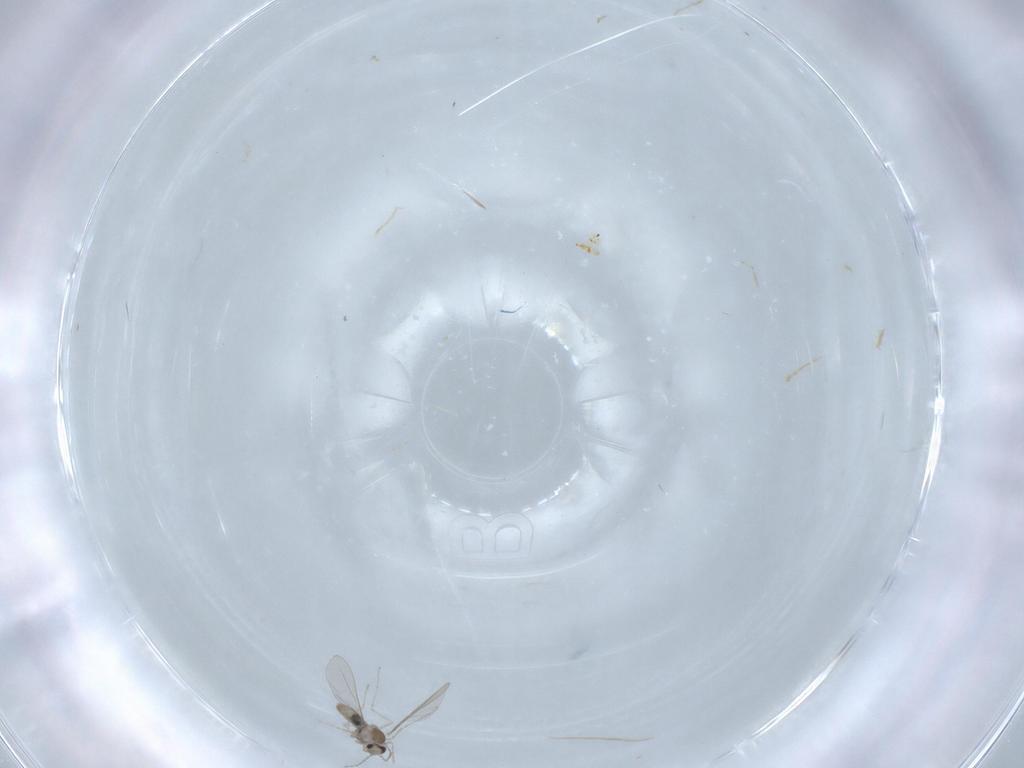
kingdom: Animalia
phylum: Arthropoda
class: Insecta
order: Diptera
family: Cecidomyiidae
